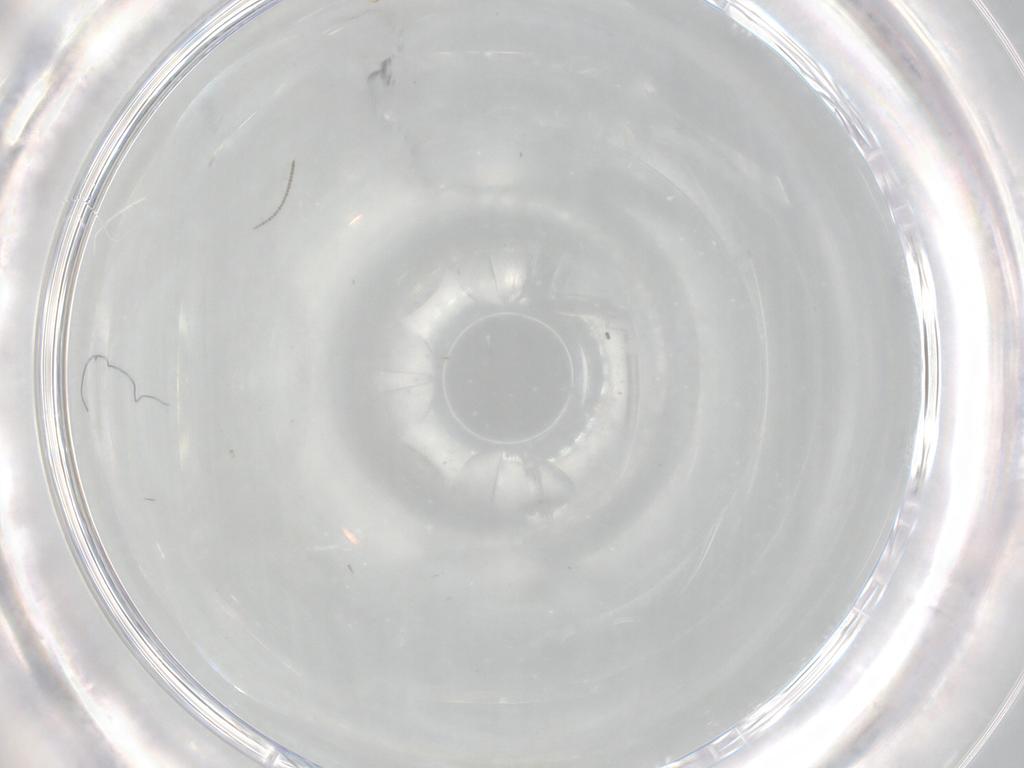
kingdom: Animalia
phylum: Arthropoda
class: Insecta
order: Diptera
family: Cecidomyiidae
